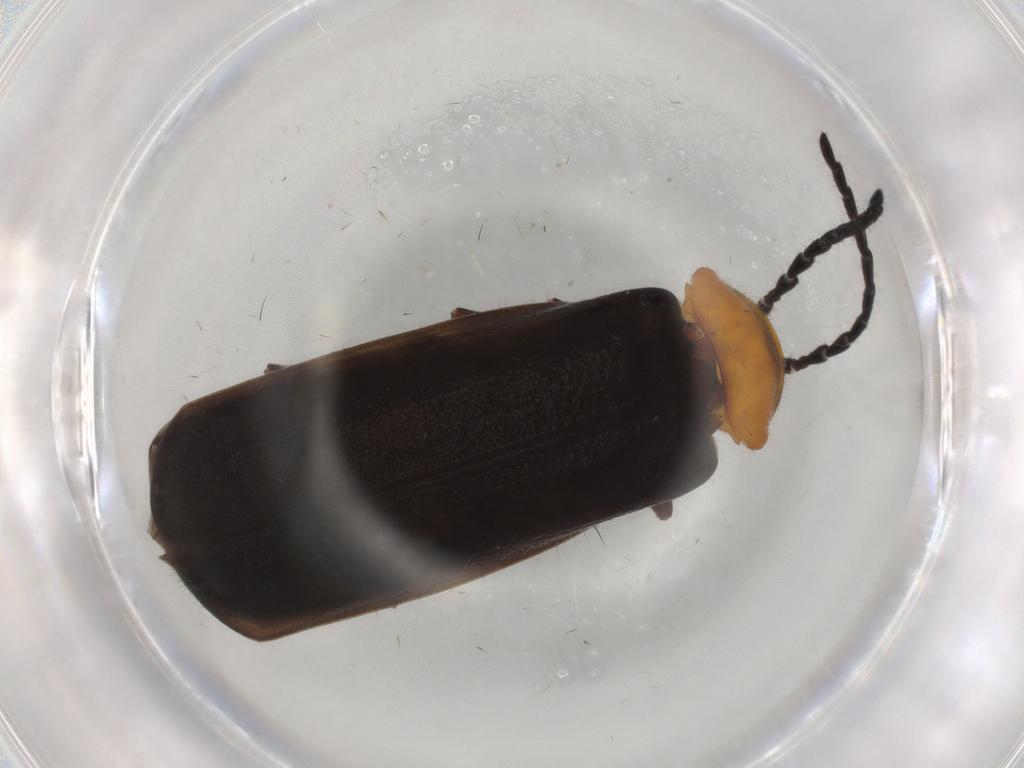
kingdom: Animalia
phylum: Arthropoda
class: Insecta
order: Coleoptera
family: Cantharidae
